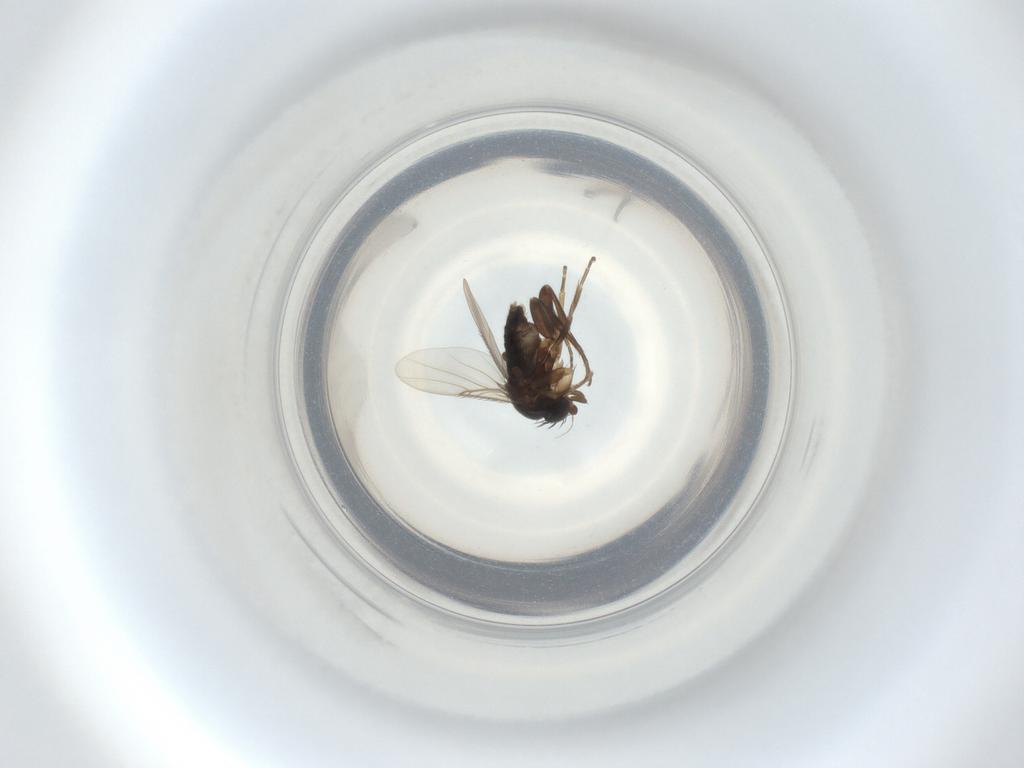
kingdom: Animalia
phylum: Arthropoda
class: Insecta
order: Diptera
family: Phoridae
